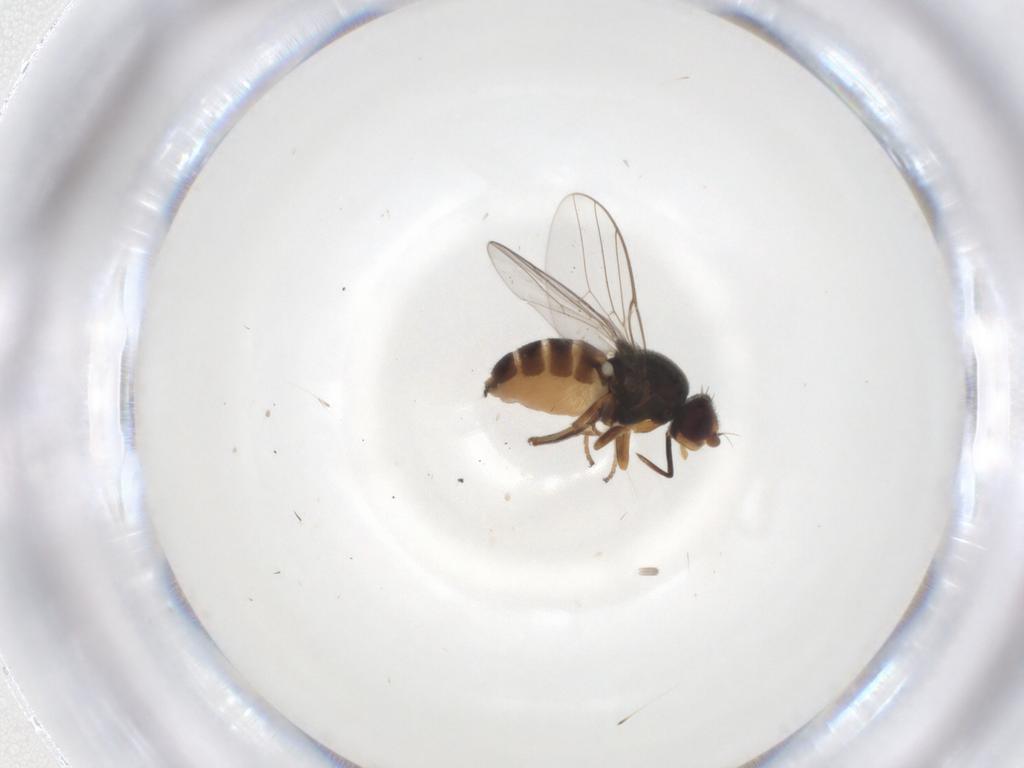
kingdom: Animalia
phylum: Arthropoda
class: Insecta
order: Diptera
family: Chloropidae
